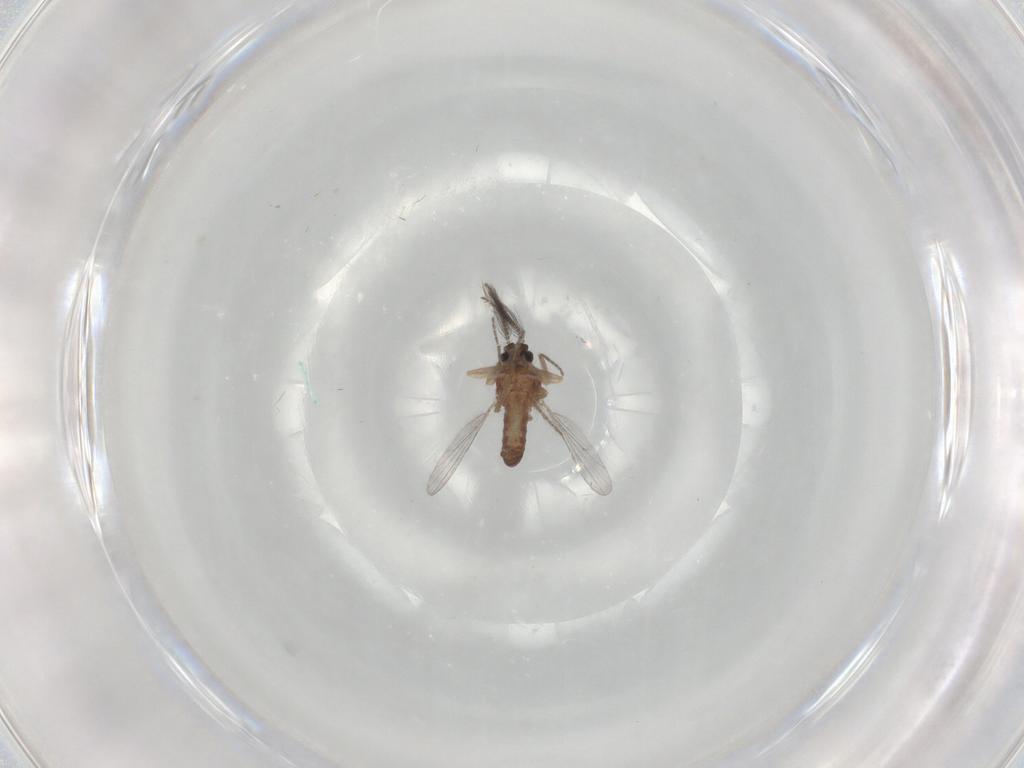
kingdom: Animalia
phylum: Arthropoda
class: Insecta
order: Diptera
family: Ceratopogonidae
